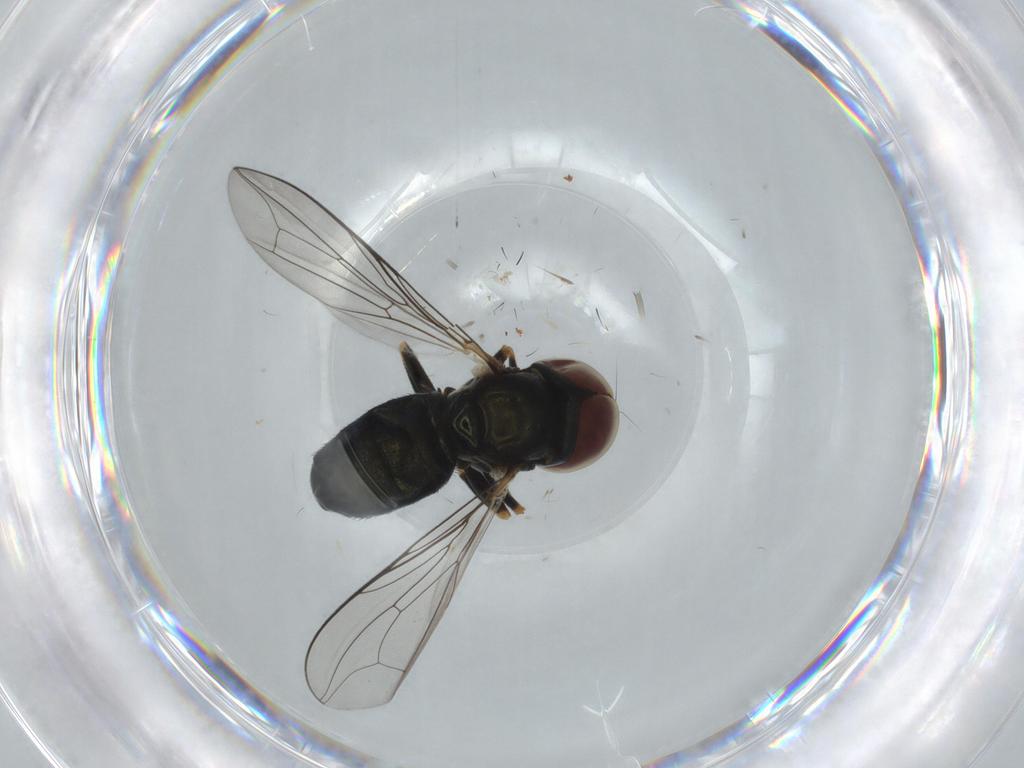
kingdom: Animalia
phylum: Arthropoda
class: Insecta
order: Diptera
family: Pipunculidae
